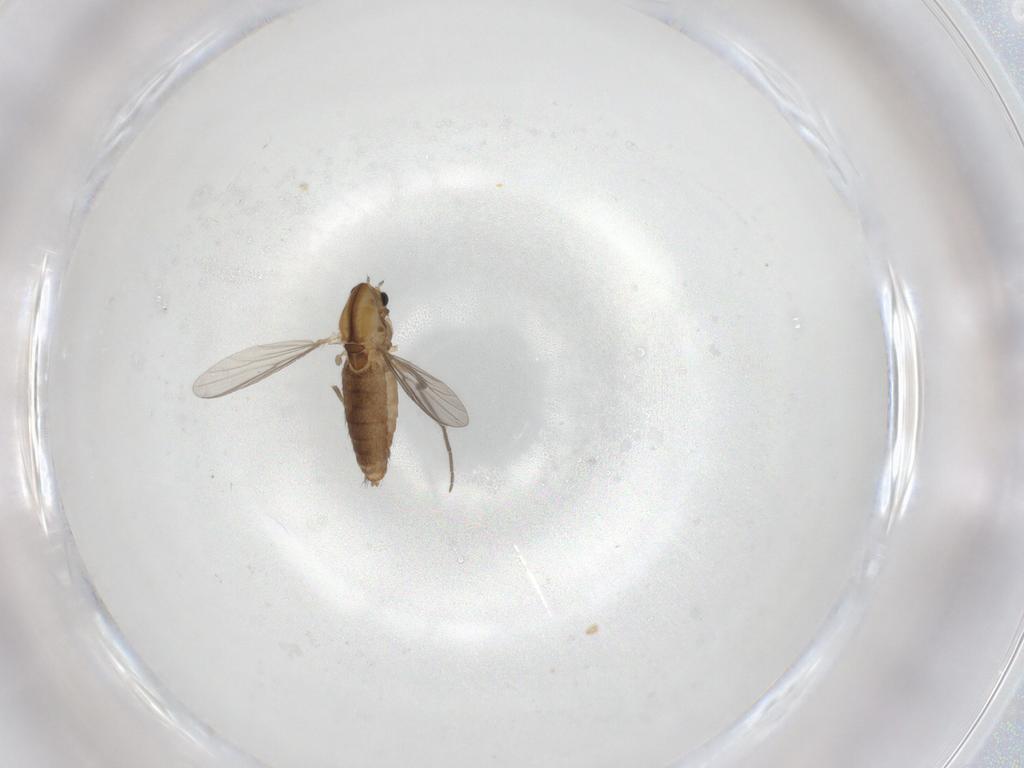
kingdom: Animalia
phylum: Arthropoda
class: Insecta
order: Diptera
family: Chironomidae
